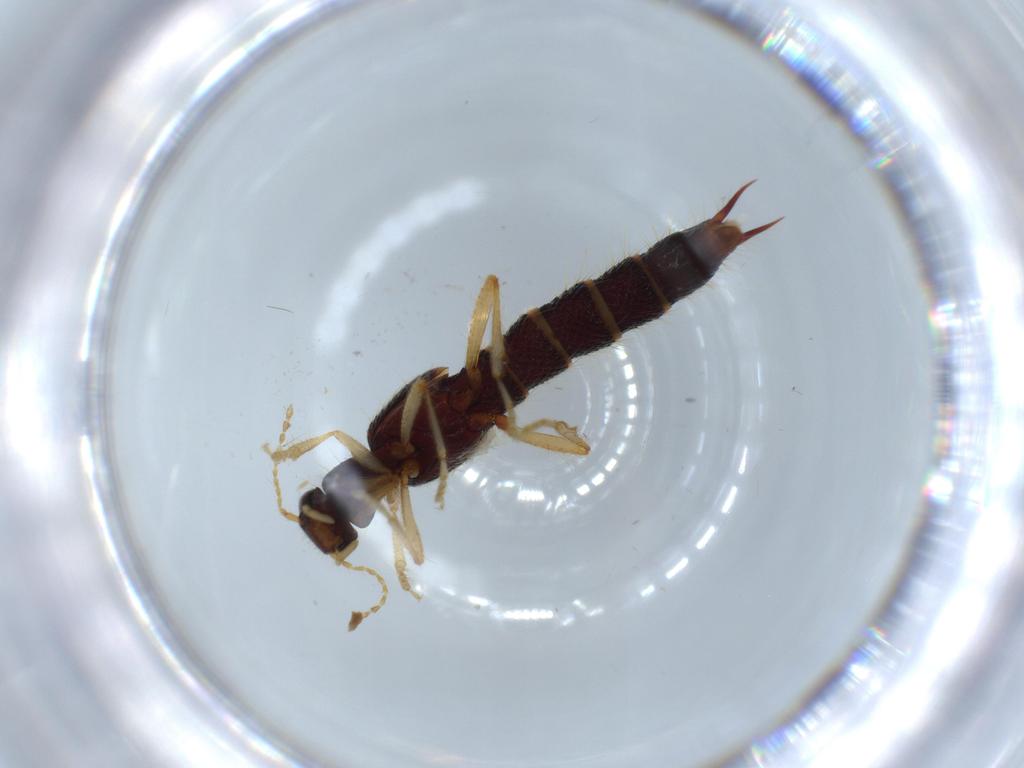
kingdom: Animalia
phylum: Arthropoda
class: Insecta
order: Coleoptera
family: Staphylinidae
